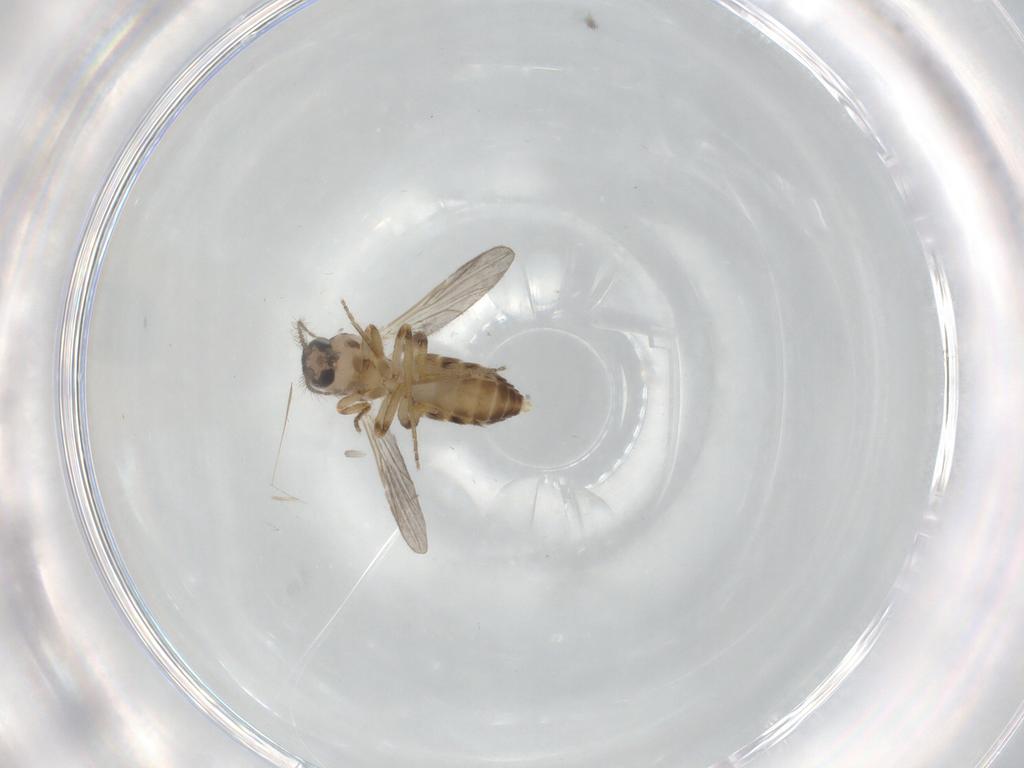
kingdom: Animalia
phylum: Arthropoda
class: Insecta
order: Diptera
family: Ceratopogonidae
